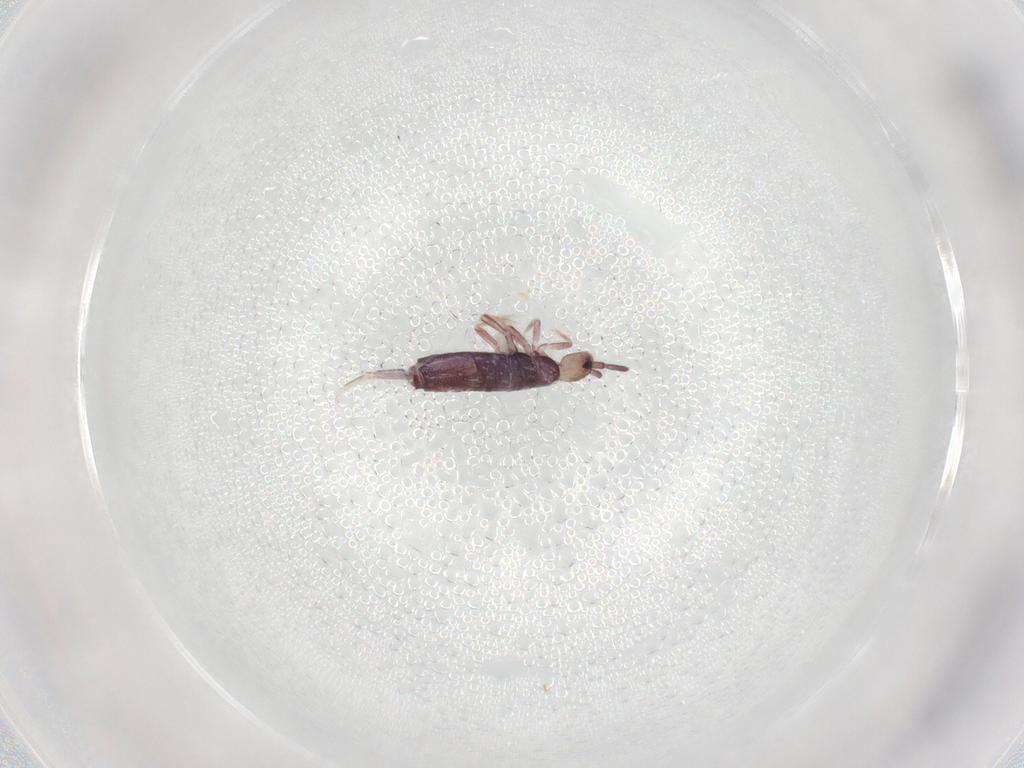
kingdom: Animalia
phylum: Arthropoda
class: Collembola
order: Entomobryomorpha
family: Entomobryidae
